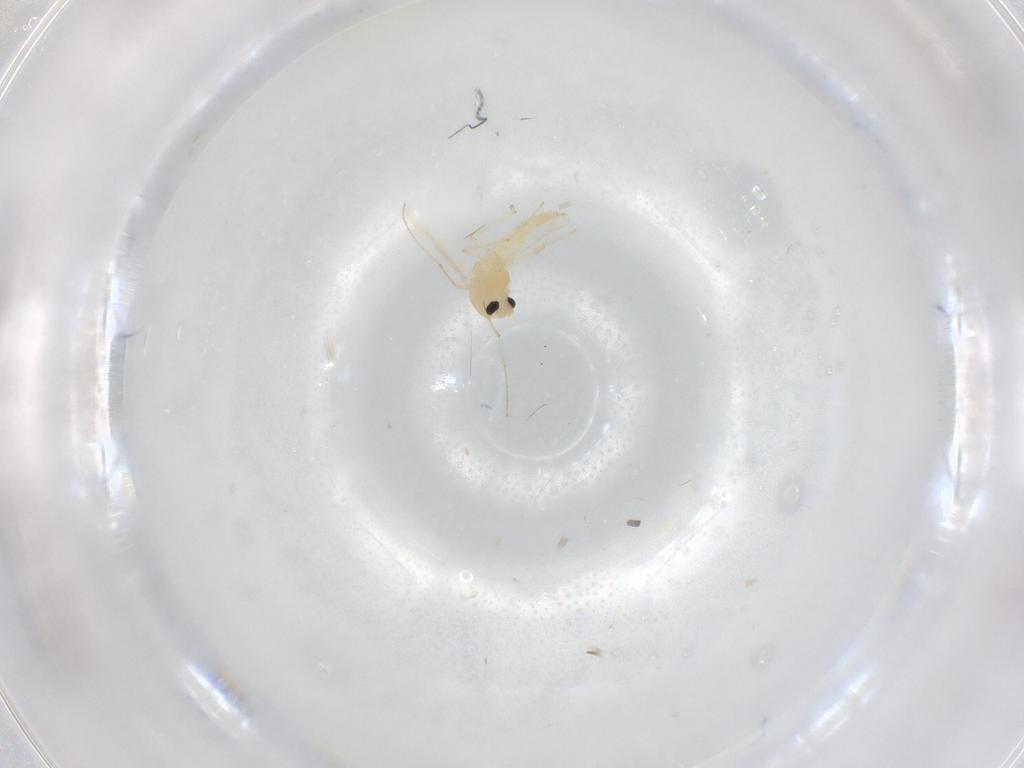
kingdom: Animalia
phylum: Arthropoda
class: Insecta
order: Diptera
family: Chironomidae
